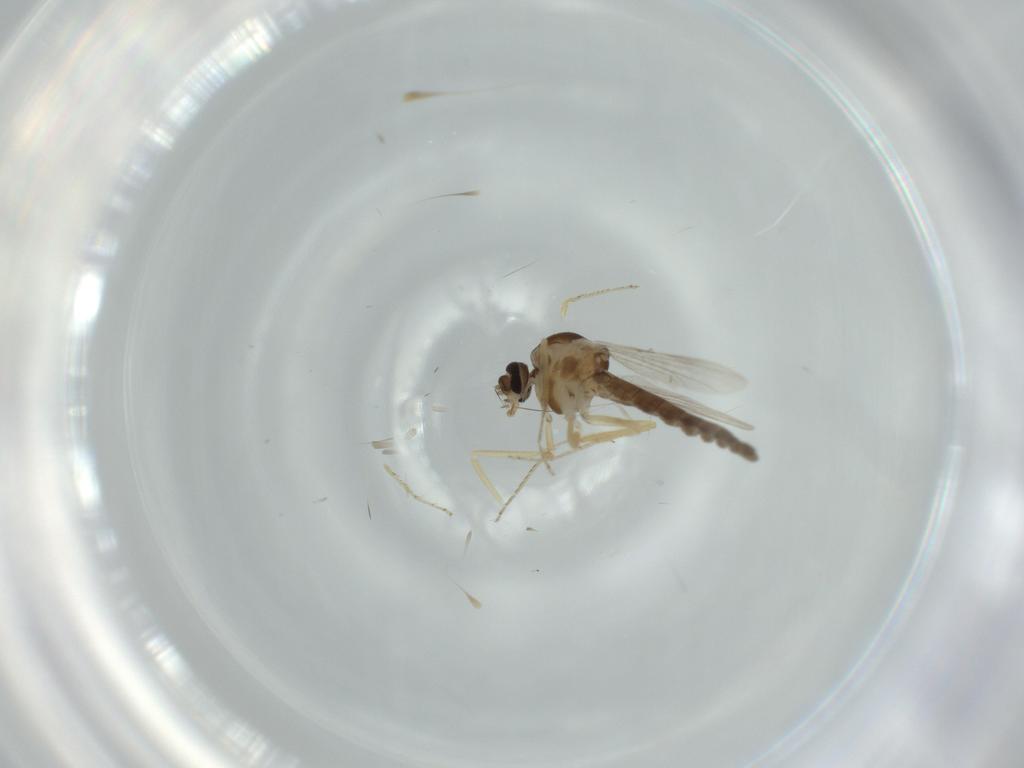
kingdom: Animalia
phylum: Arthropoda
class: Insecta
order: Diptera
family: Ceratopogonidae
